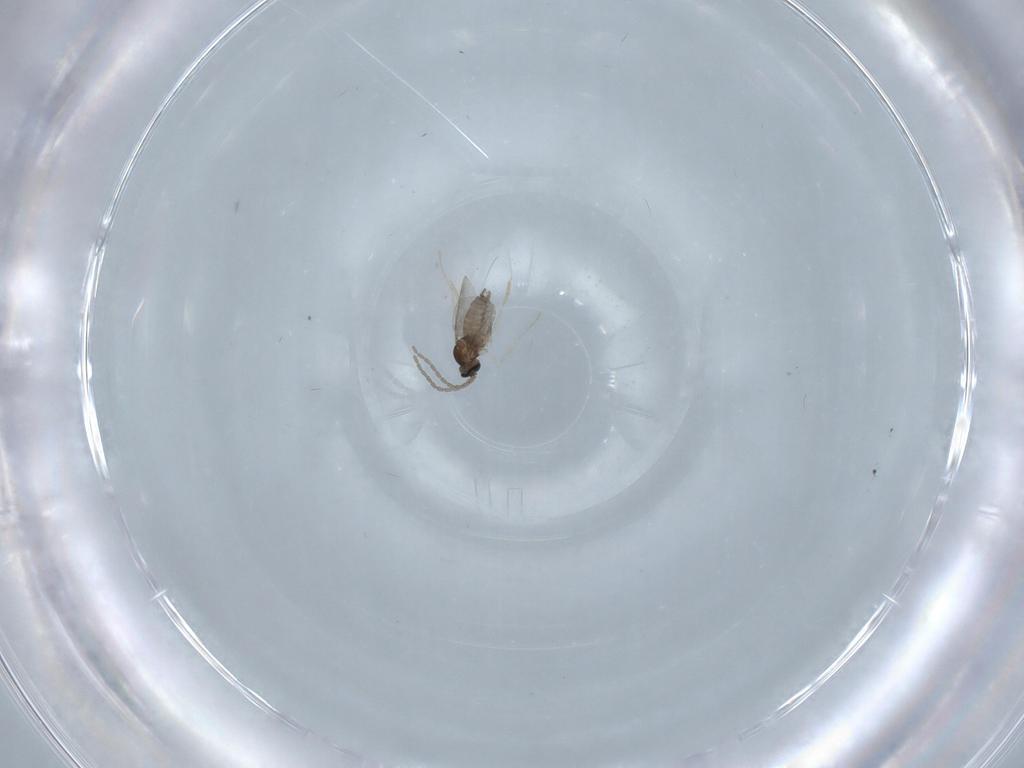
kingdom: Animalia
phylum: Arthropoda
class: Insecta
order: Diptera
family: Cecidomyiidae
